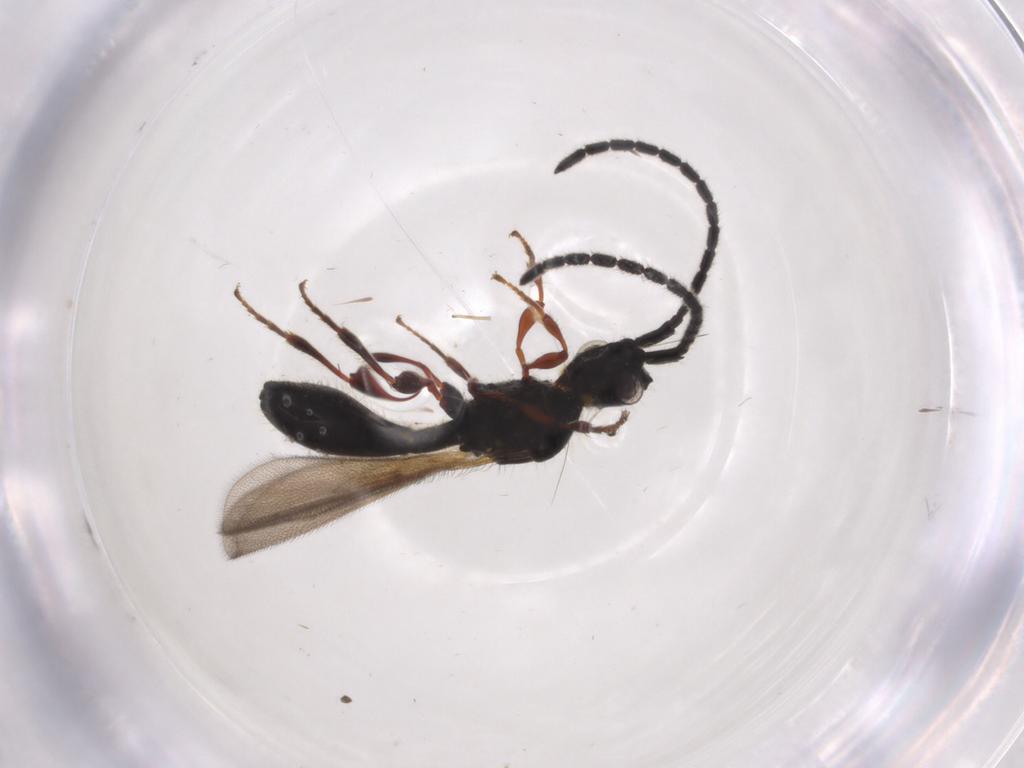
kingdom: Animalia
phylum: Arthropoda
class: Insecta
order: Hymenoptera
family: Diapriidae
